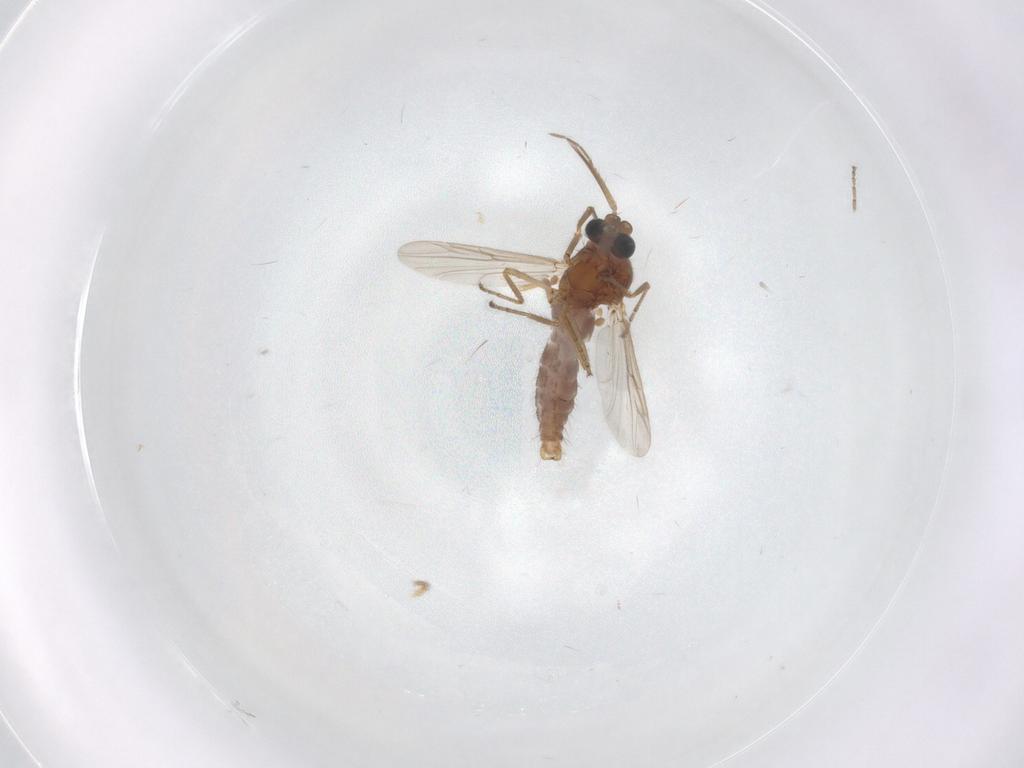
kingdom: Animalia
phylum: Arthropoda
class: Insecta
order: Diptera
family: Ceratopogonidae
